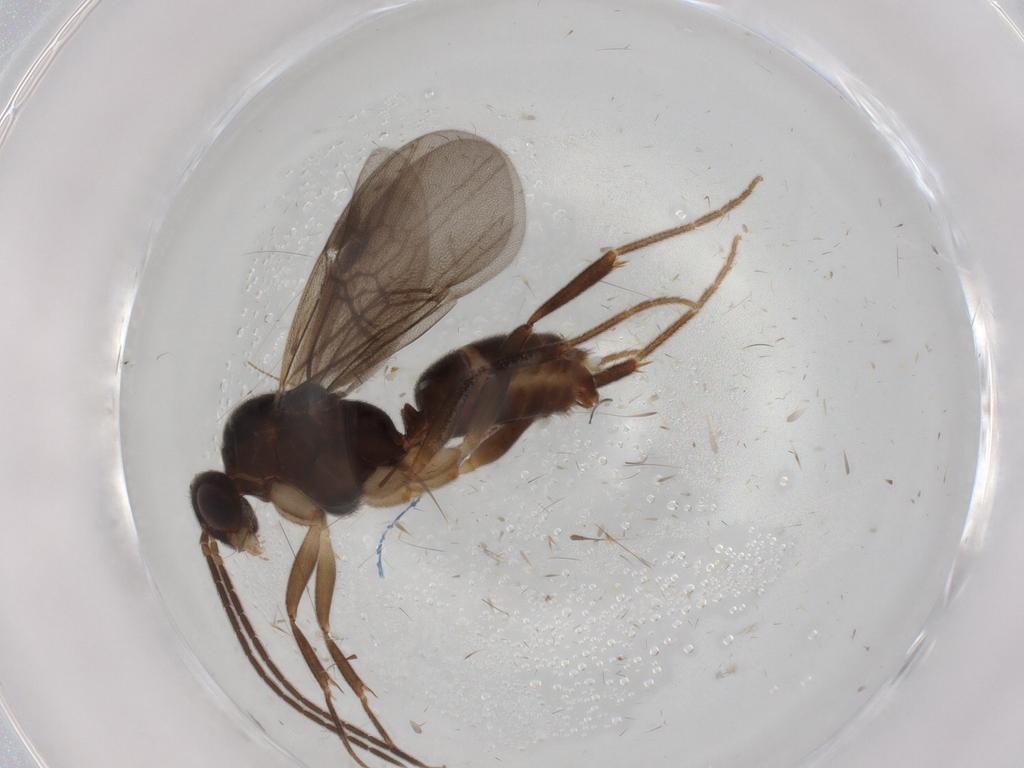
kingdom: Animalia
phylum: Arthropoda
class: Insecta
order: Hymenoptera
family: Formicidae
